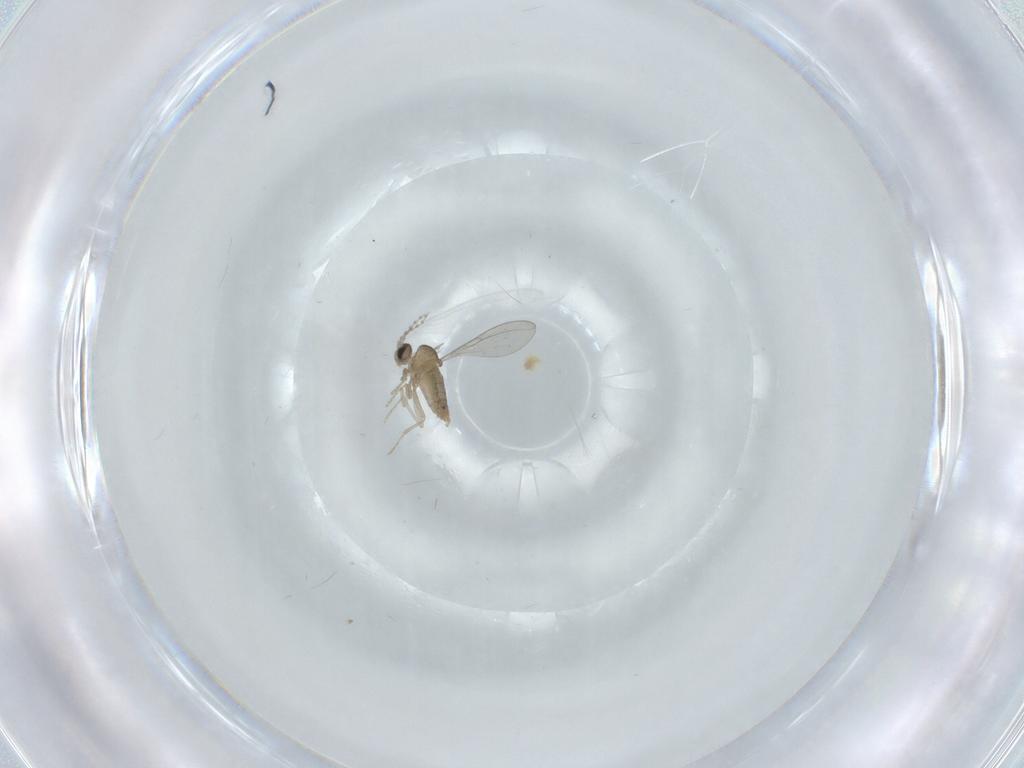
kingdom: Animalia
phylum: Arthropoda
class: Insecta
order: Diptera
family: Cecidomyiidae
